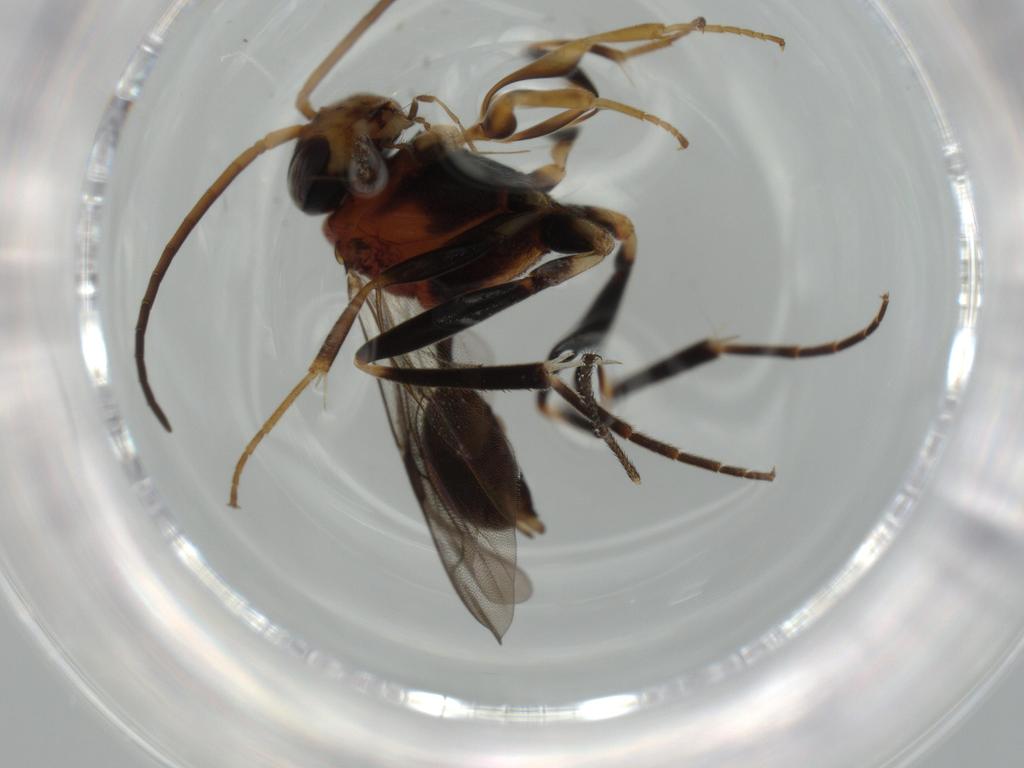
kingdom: Animalia
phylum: Arthropoda
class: Insecta
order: Hymenoptera
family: Evaniidae
